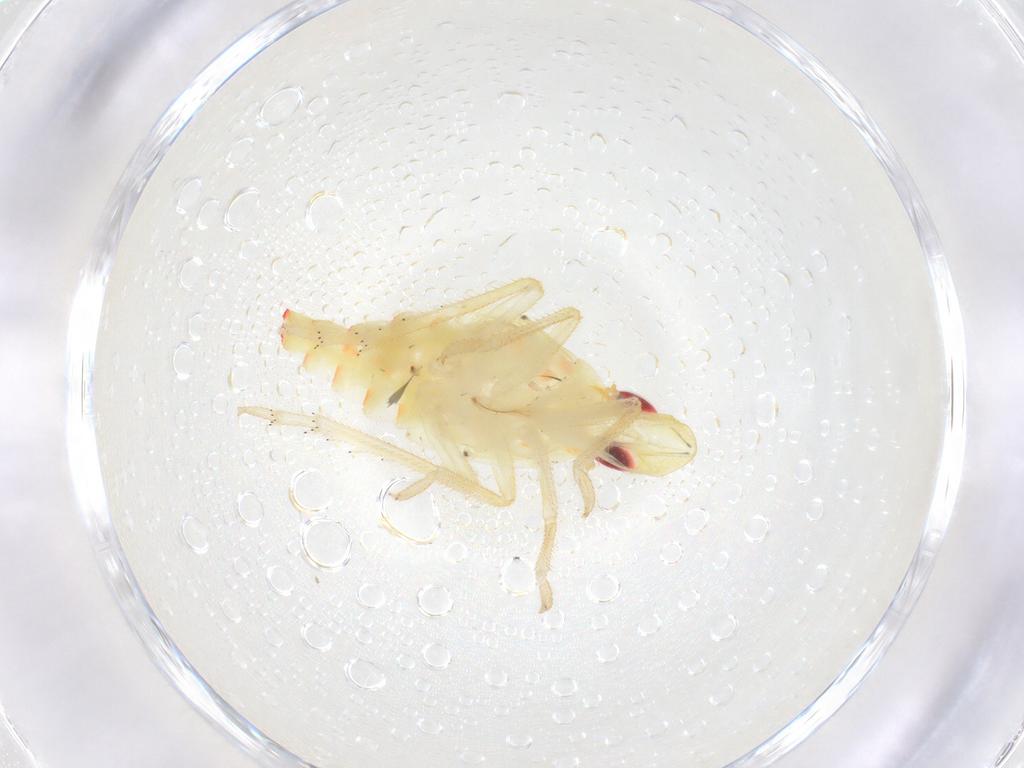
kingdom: Animalia
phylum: Arthropoda
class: Insecta
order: Hemiptera
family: Tropiduchidae
